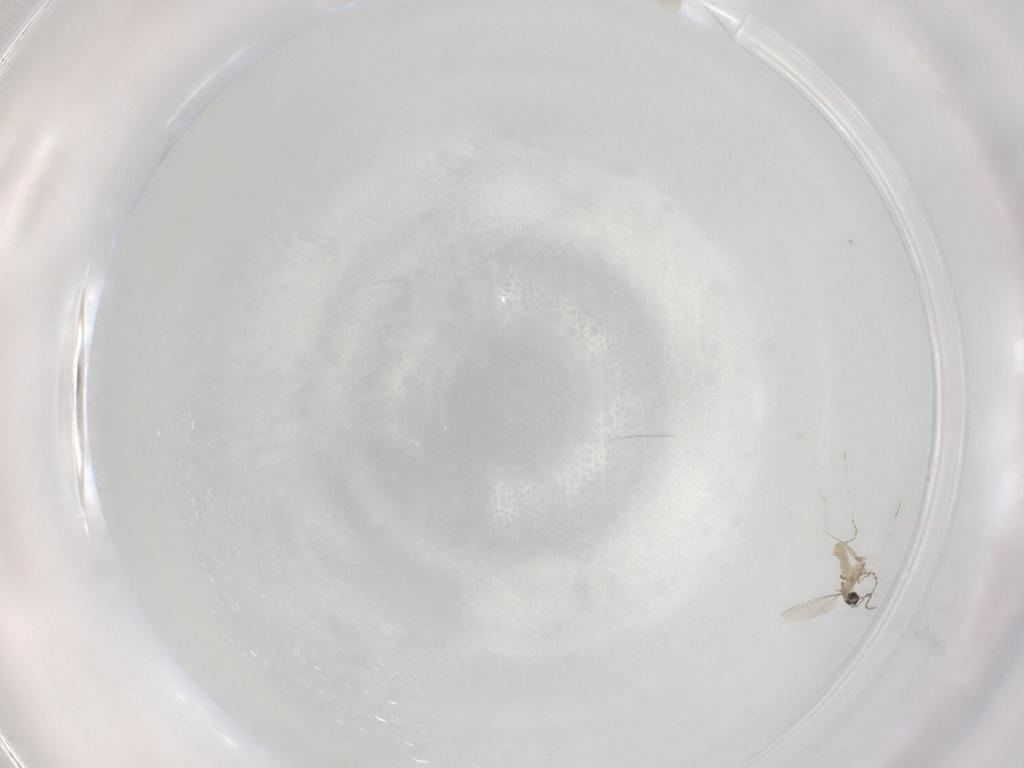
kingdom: Animalia
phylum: Arthropoda
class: Insecta
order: Diptera
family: Cecidomyiidae
